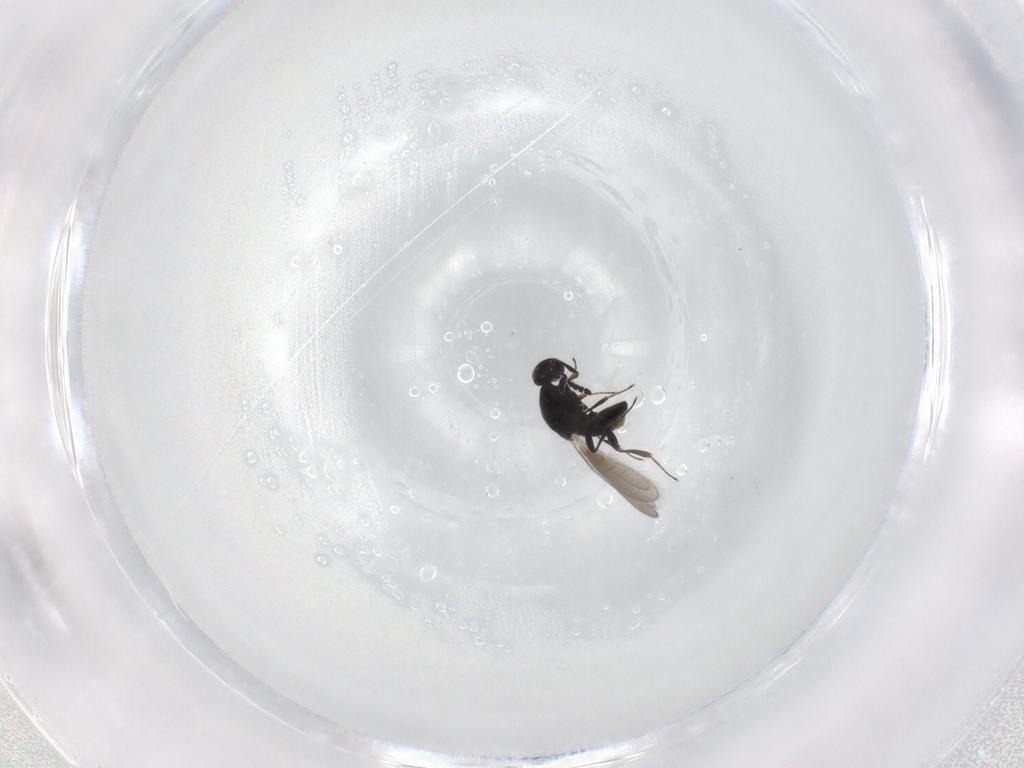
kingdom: Animalia
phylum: Arthropoda
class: Insecta
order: Hymenoptera
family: Platygastridae
